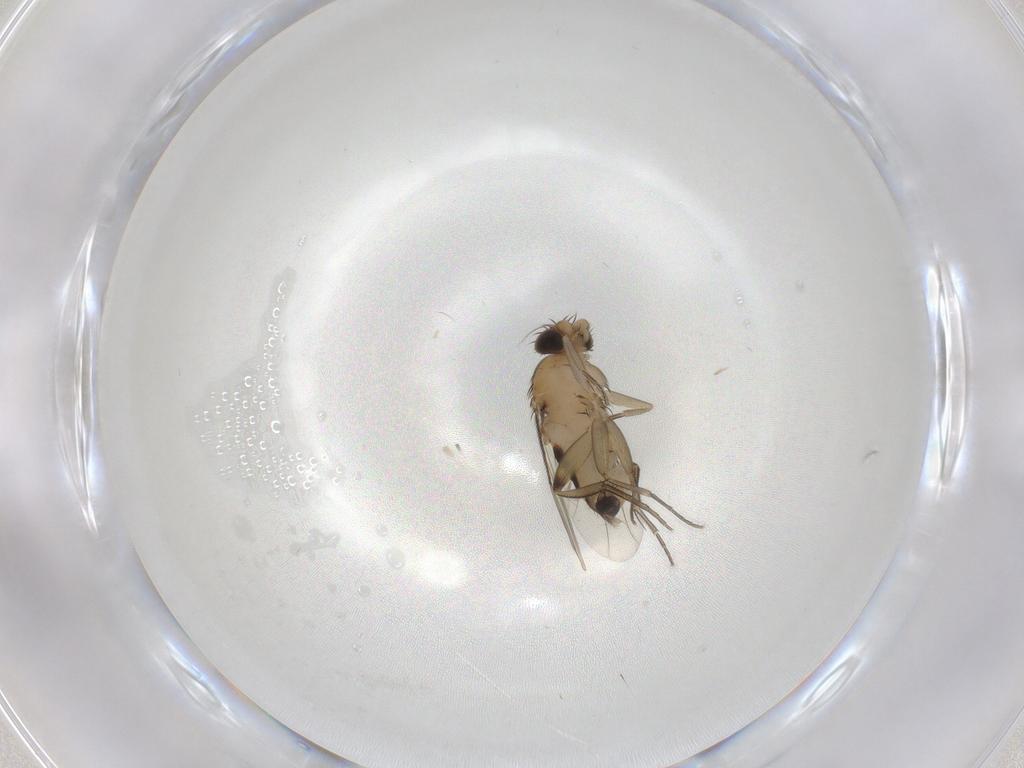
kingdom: Animalia
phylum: Arthropoda
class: Insecta
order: Diptera
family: Phoridae
